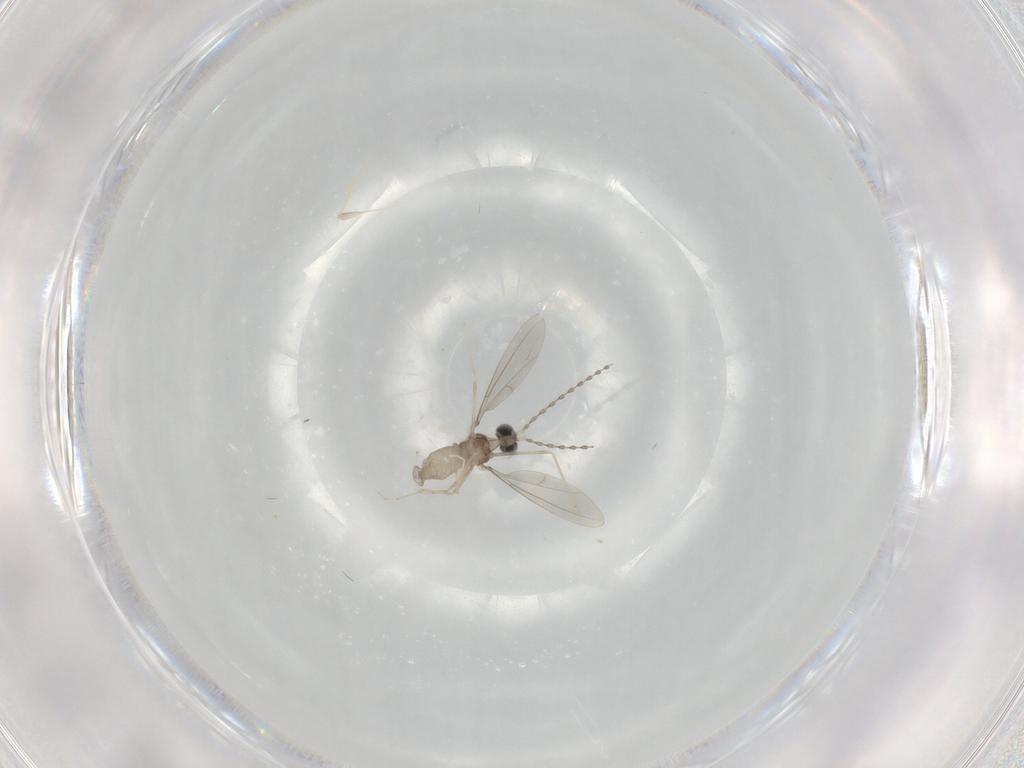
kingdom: Animalia
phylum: Arthropoda
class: Insecta
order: Diptera
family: Cecidomyiidae
